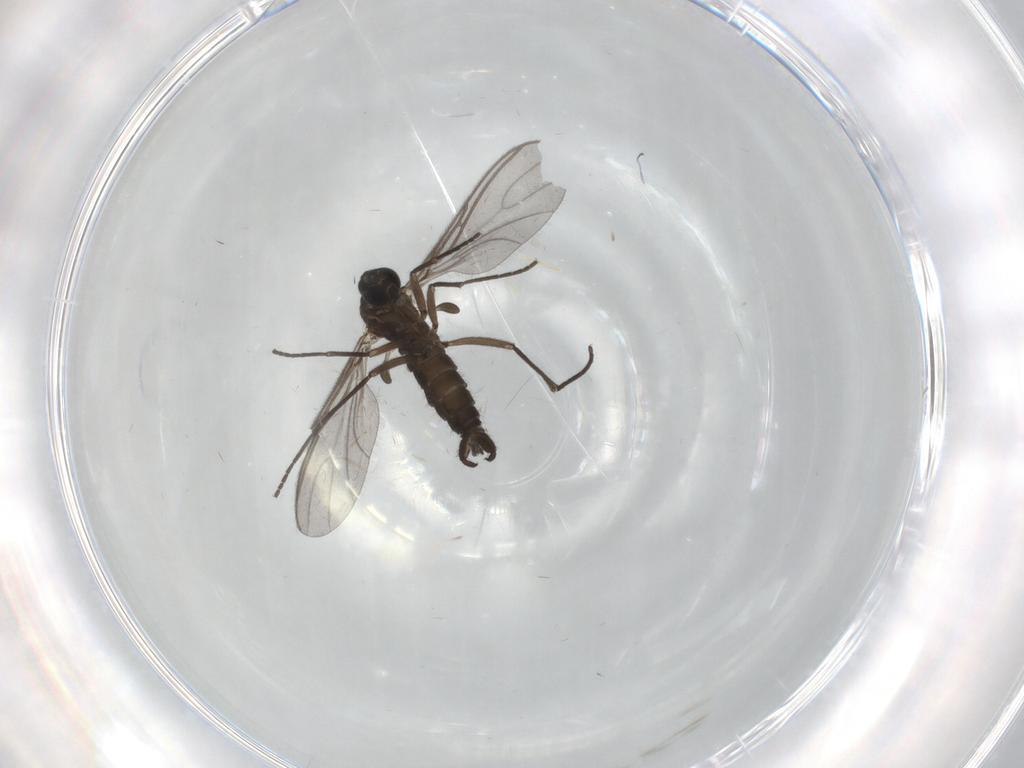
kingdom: Animalia
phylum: Arthropoda
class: Insecta
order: Diptera
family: Sciaridae
